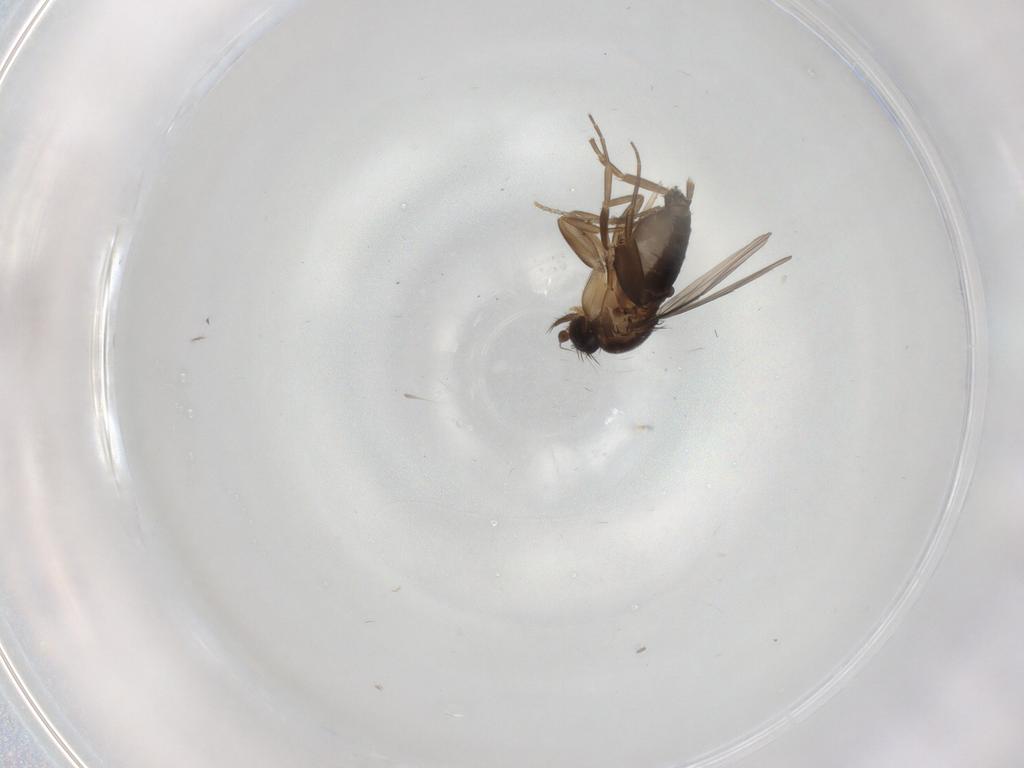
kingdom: Animalia
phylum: Arthropoda
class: Insecta
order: Diptera
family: Phoridae
